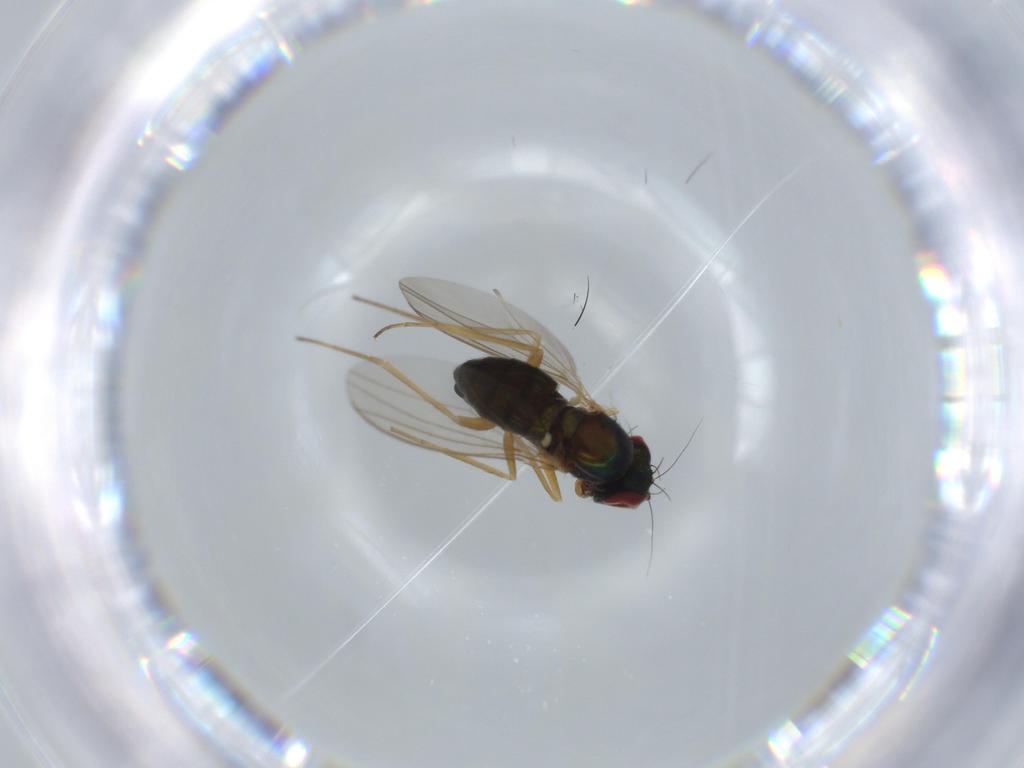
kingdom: Animalia
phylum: Arthropoda
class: Insecta
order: Diptera
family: Dolichopodidae
